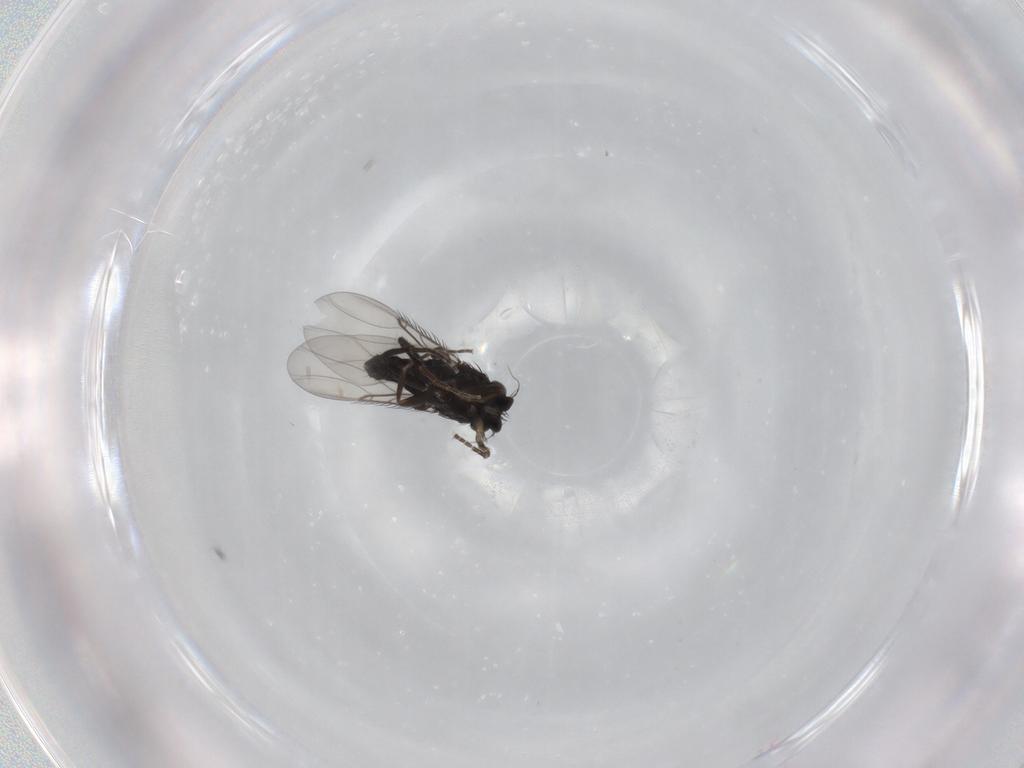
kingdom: Animalia
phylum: Arthropoda
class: Insecta
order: Diptera
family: Phoridae
